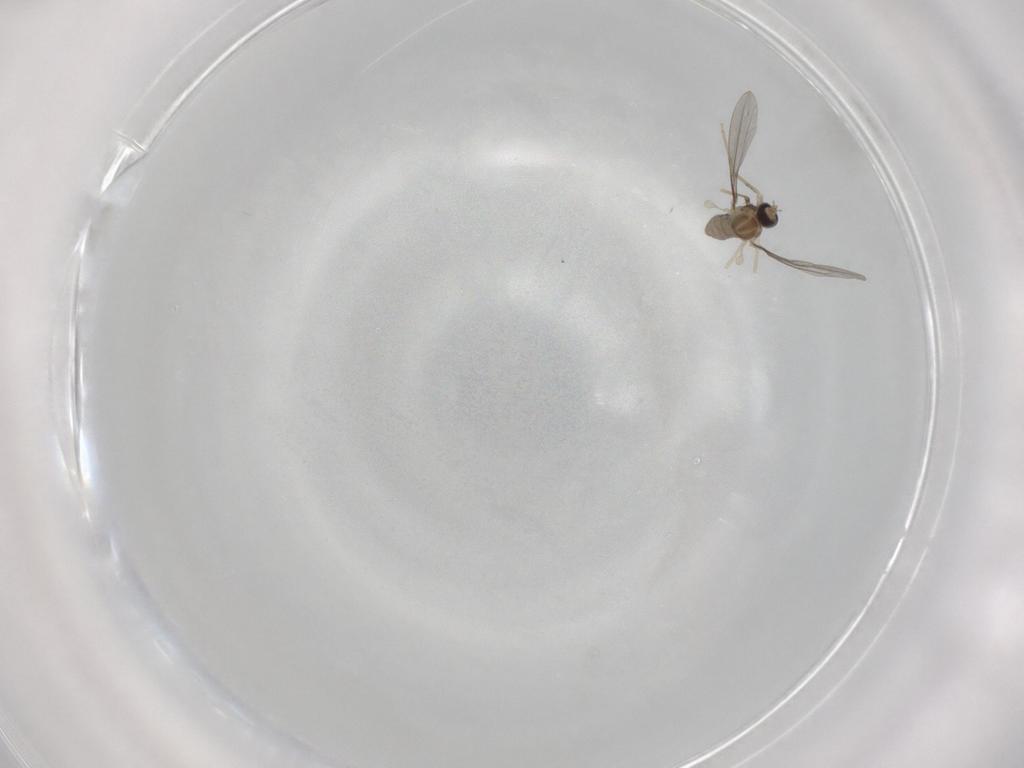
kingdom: Animalia
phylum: Arthropoda
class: Insecta
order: Diptera
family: Cecidomyiidae
